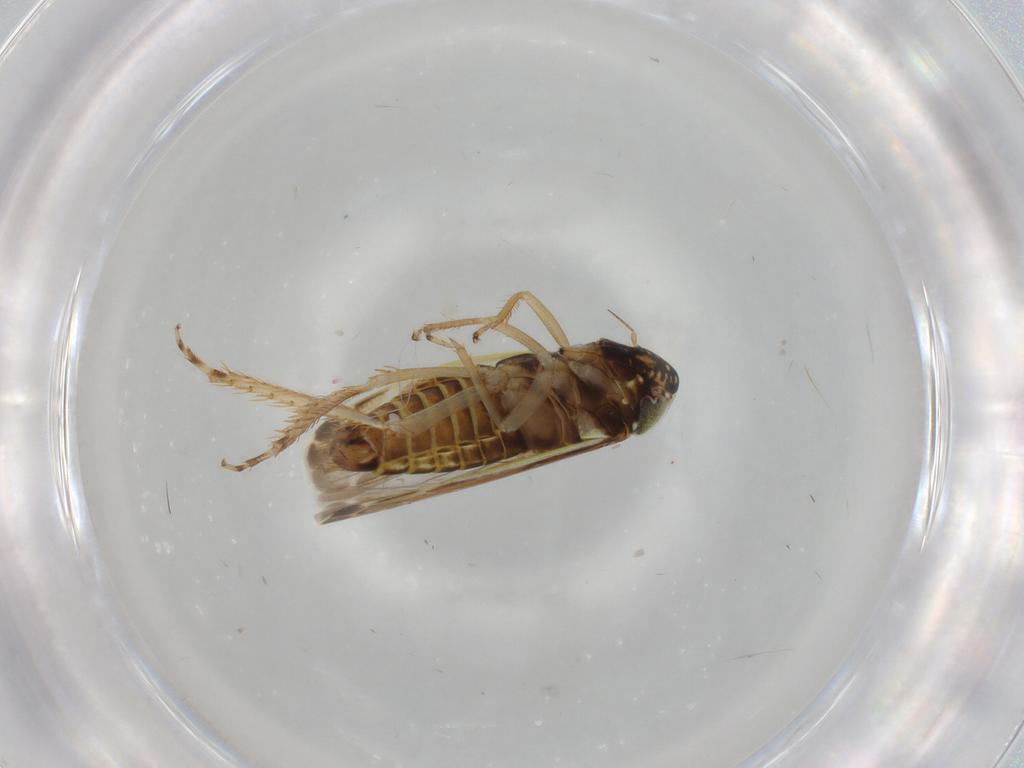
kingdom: Animalia
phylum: Arthropoda
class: Insecta
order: Hemiptera
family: Cicadellidae
